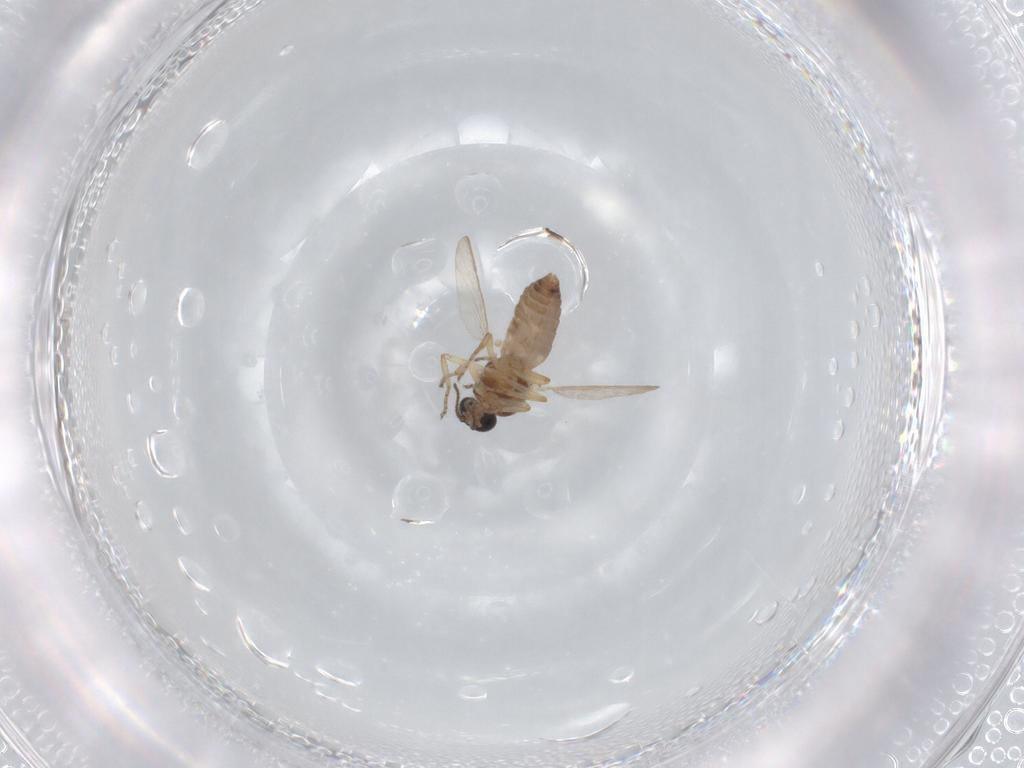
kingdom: Animalia
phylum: Arthropoda
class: Insecta
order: Diptera
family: Ceratopogonidae
